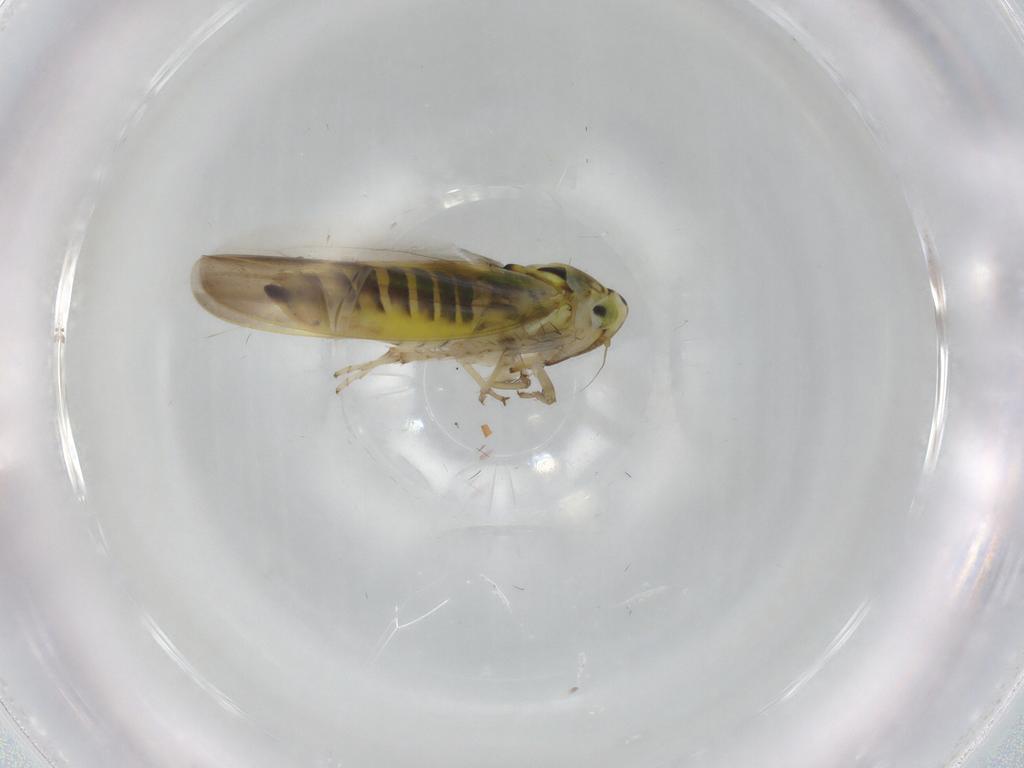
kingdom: Animalia
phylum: Arthropoda
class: Insecta
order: Hemiptera
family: Cicadellidae
